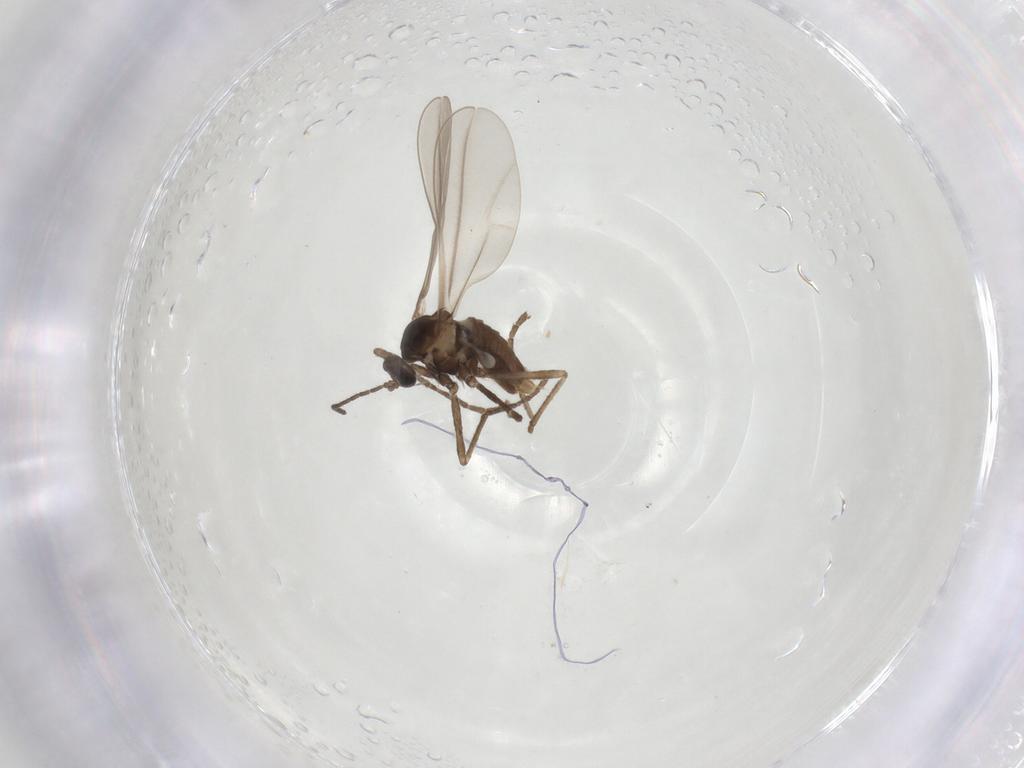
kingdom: Animalia
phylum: Arthropoda
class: Insecta
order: Diptera
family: Cecidomyiidae
